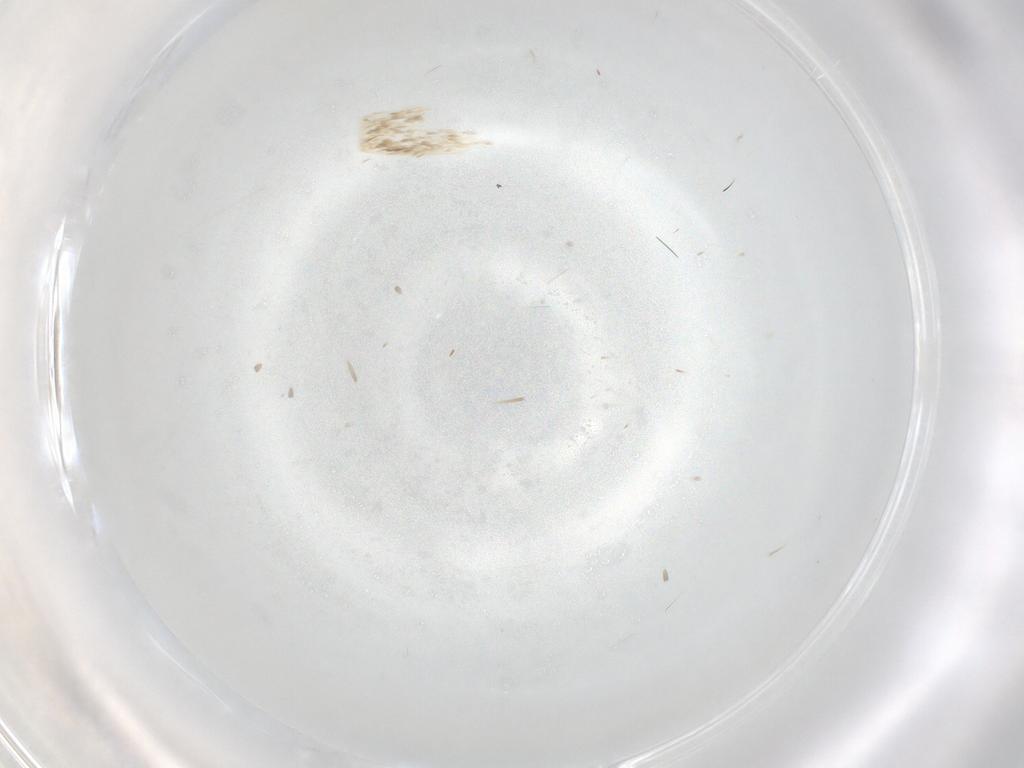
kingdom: Animalia
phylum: Arthropoda
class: Insecta
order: Diptera
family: Cecidomyiidae
